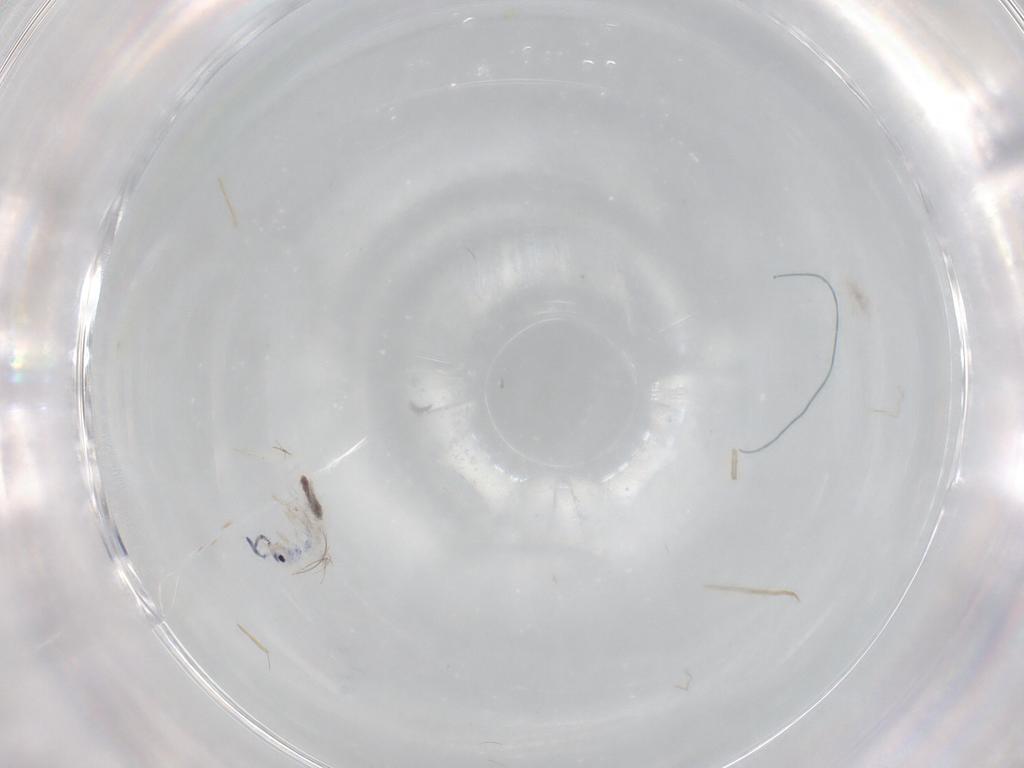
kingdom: Animalia
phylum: Arthropoda
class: Collembola
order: Entomobryomorpha
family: Entomobryidae
